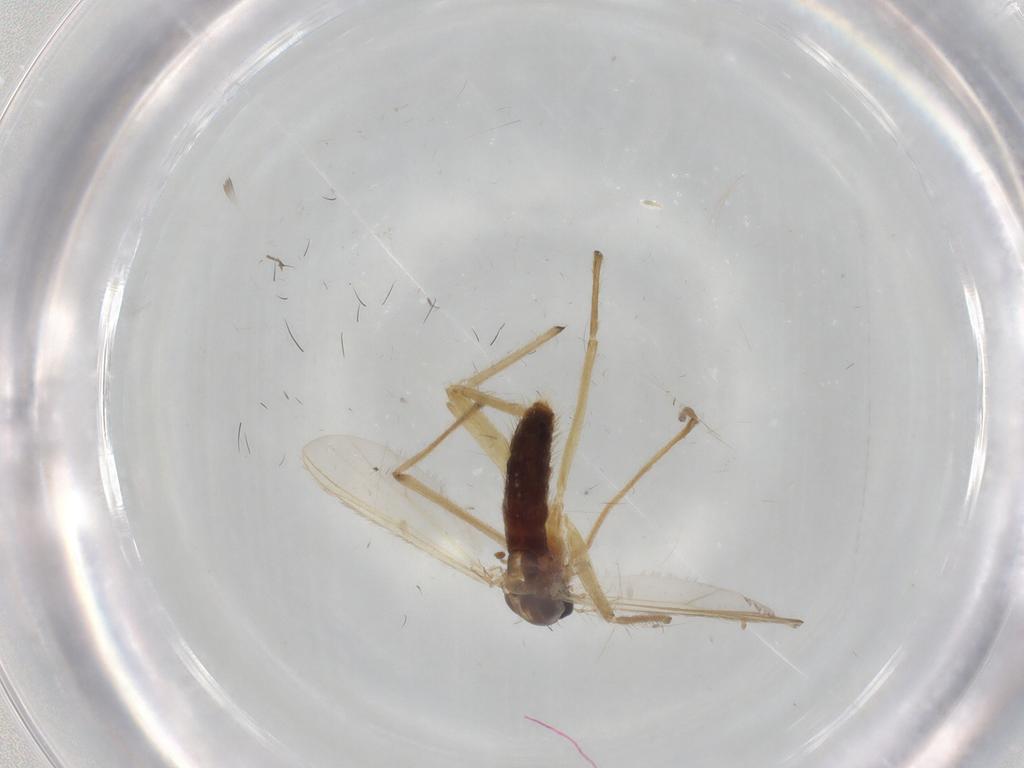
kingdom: Animalia
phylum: Arthropoda
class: Insecta
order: Diptera
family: Chironomidae
